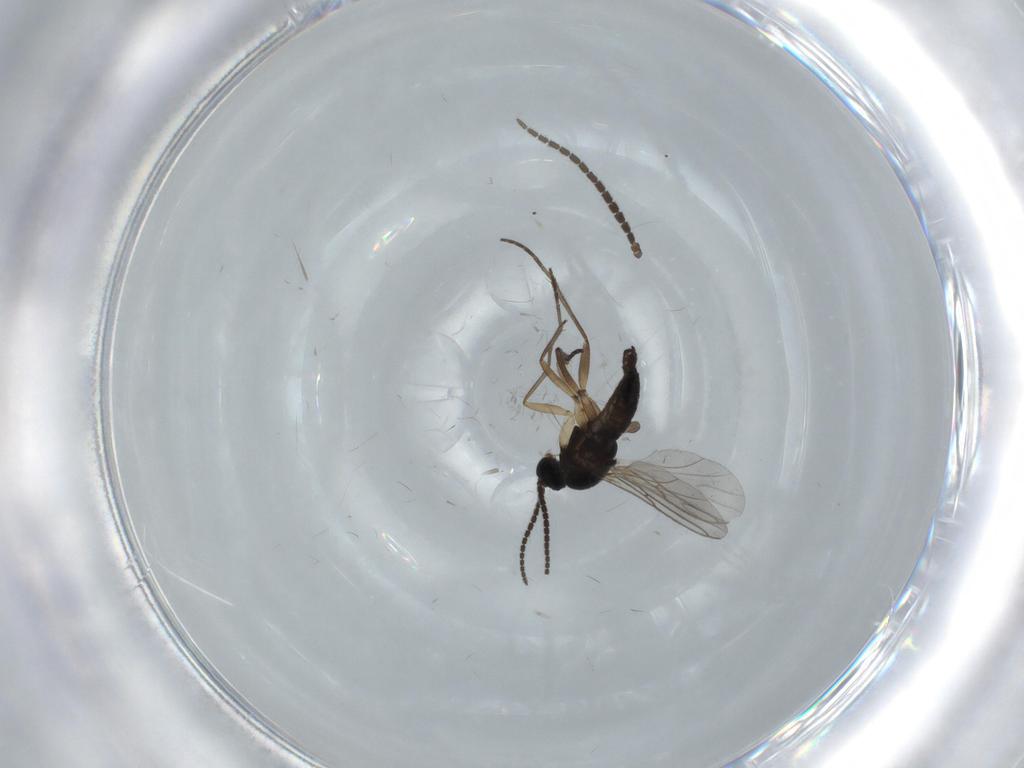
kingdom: Animalia
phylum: Arthropoda
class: Insecta
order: Diptera
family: Sciaridae
